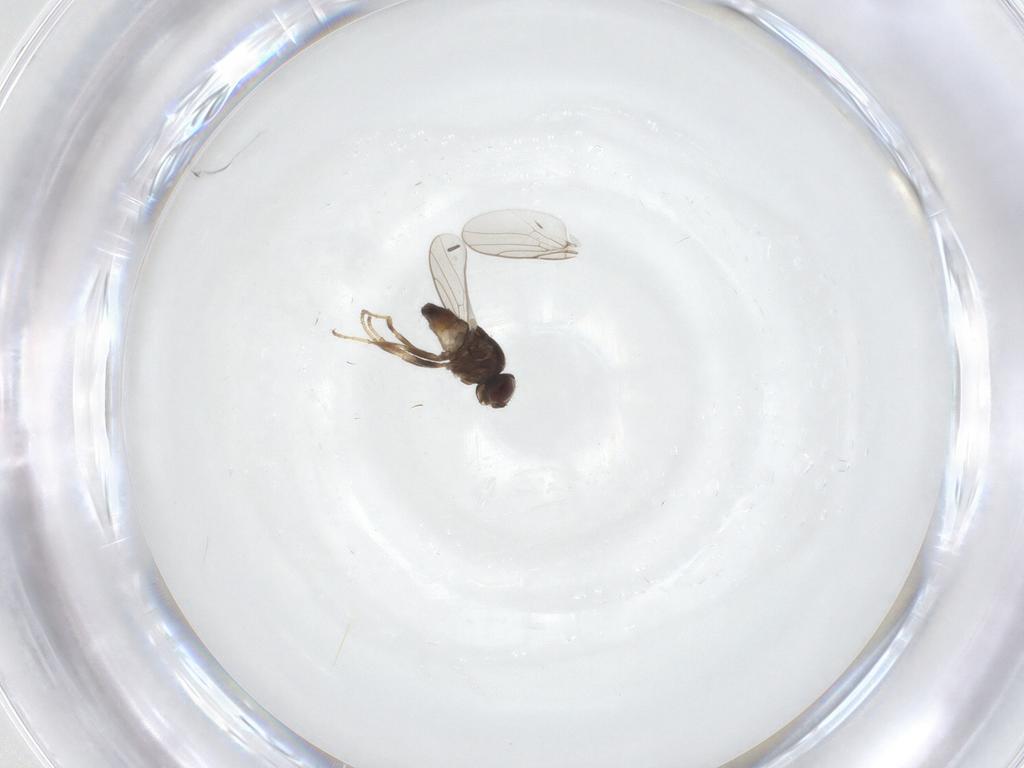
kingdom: Animalia
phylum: Arthropoda
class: Insecta
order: Diptera
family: Chloropidae
